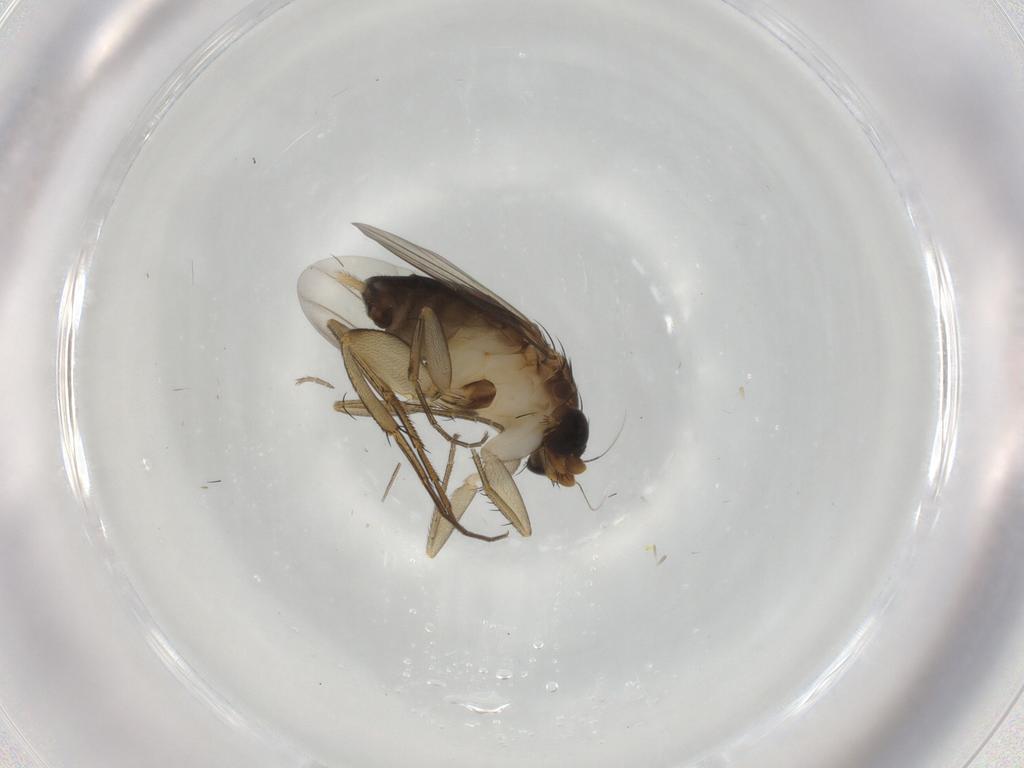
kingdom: Animalia
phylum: Arthropoda
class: Insecta
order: Diptera
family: Phoridae
